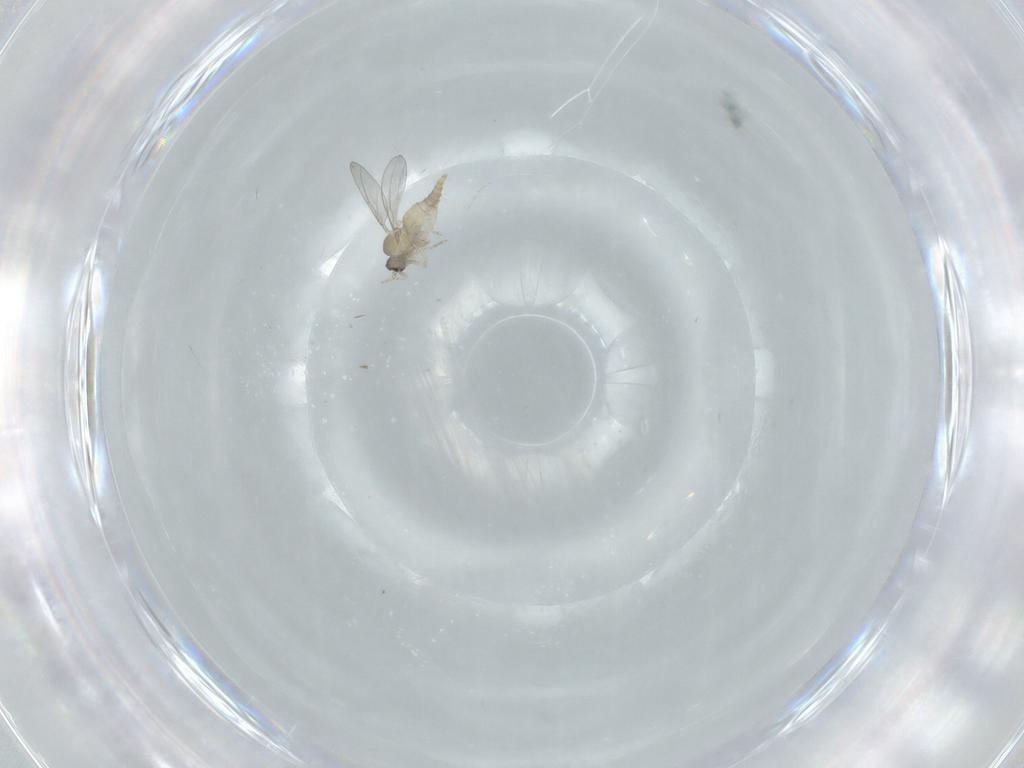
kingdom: Animalia
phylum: Arthropoda
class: Insecta
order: Diptera
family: Cecidomyiidae
